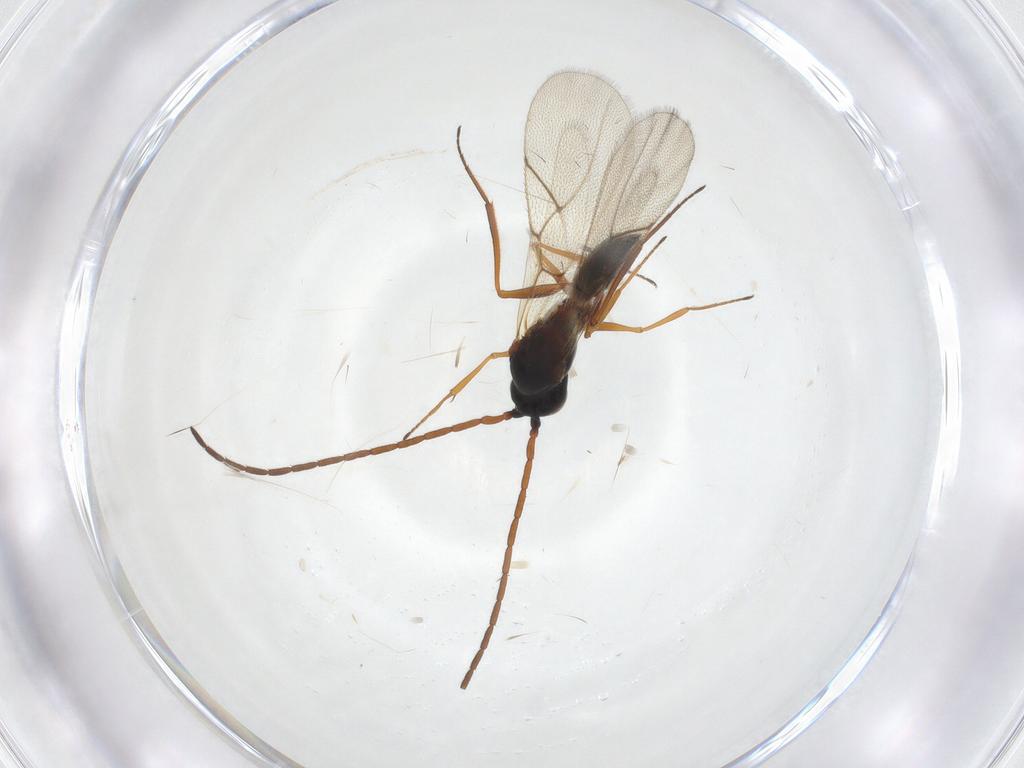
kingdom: Animalia
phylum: Arthropoda
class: Insecta
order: Hymenoptera
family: Figitidae
